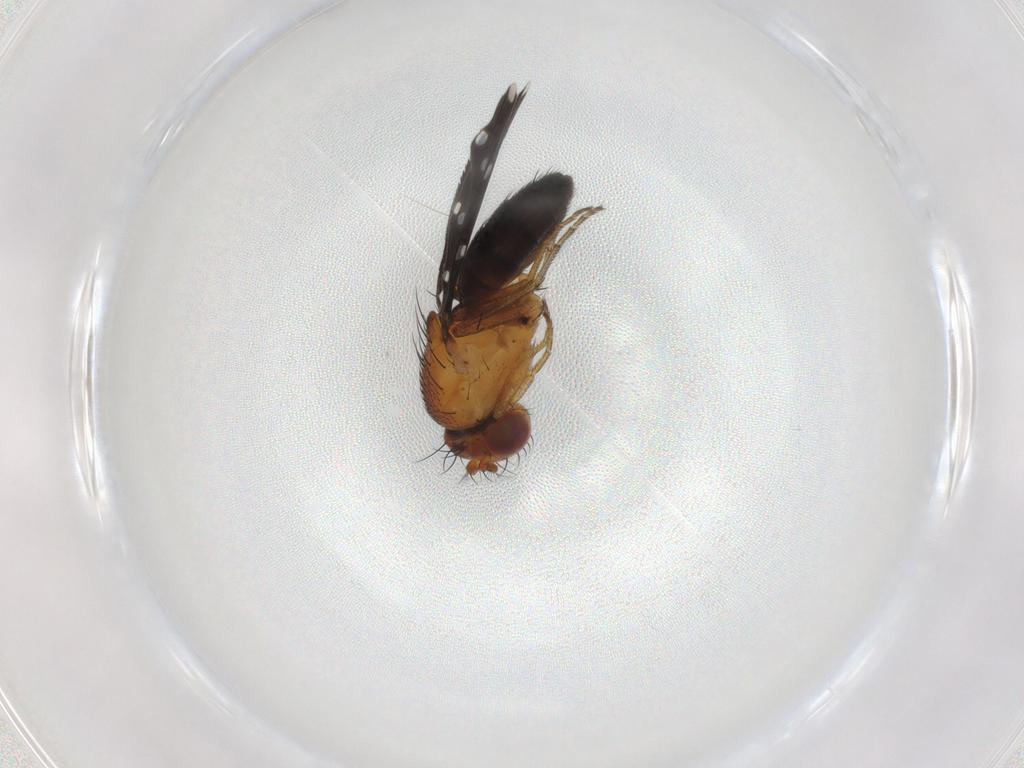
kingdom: Animalia
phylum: Arthropoda
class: Insecta
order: Diptera
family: Ephydridae
